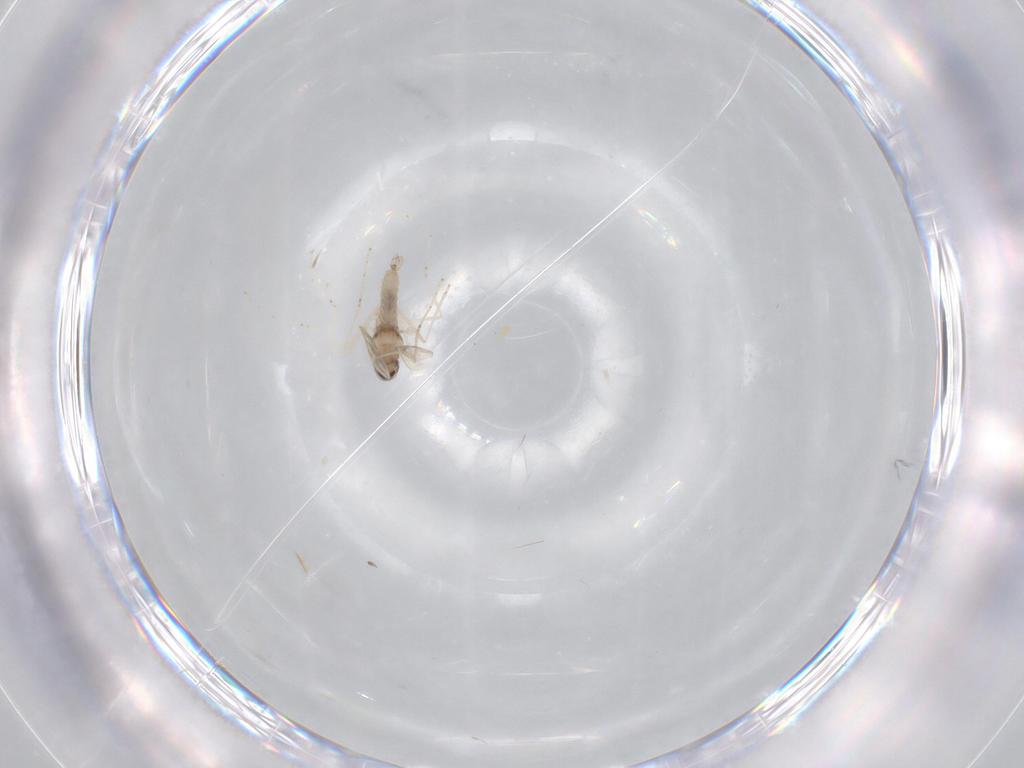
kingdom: Animalia
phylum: Arthropoda
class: Insecta
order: Diptera
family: Cecidomyiidae
